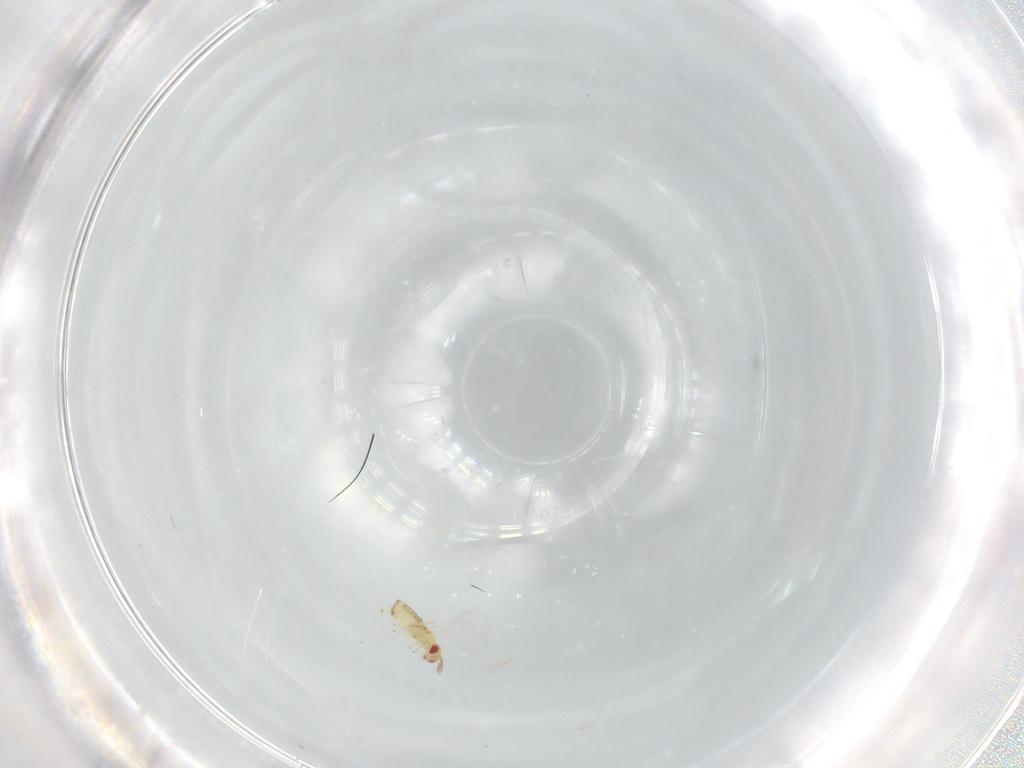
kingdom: Animalia
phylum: Arthropoda
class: Insecta
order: Hymenoptera
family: Trichogrammatidae
